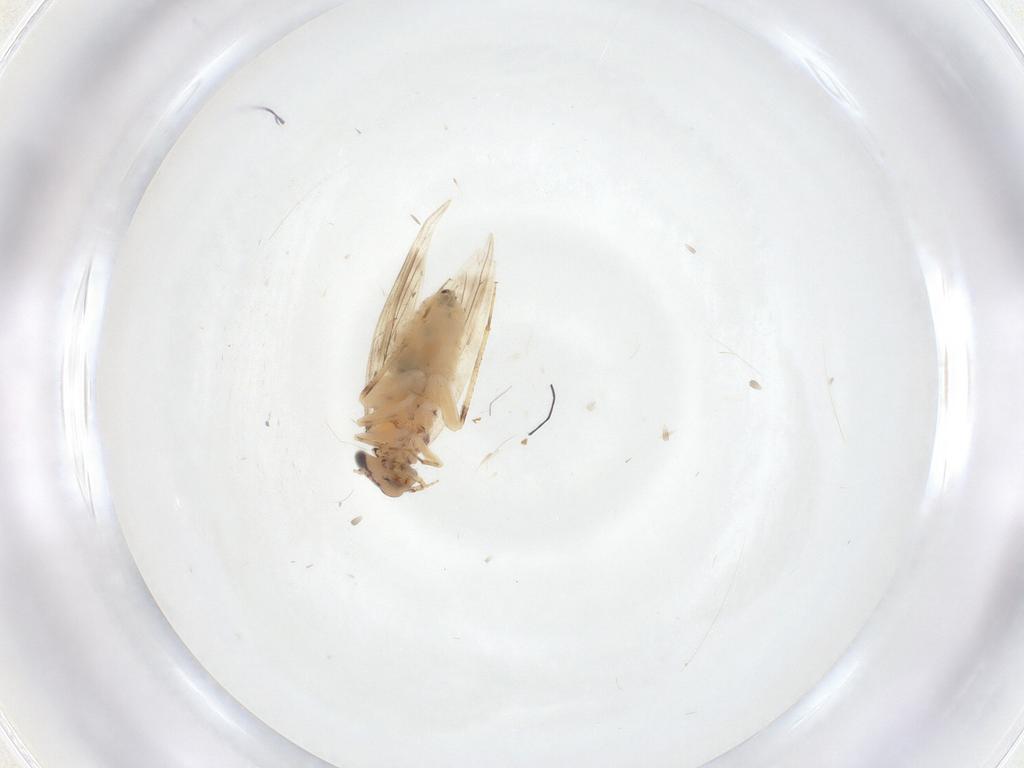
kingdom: Animalia
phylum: Arthropoda
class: Insecta
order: Psocodea
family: Lepidopsocidae
